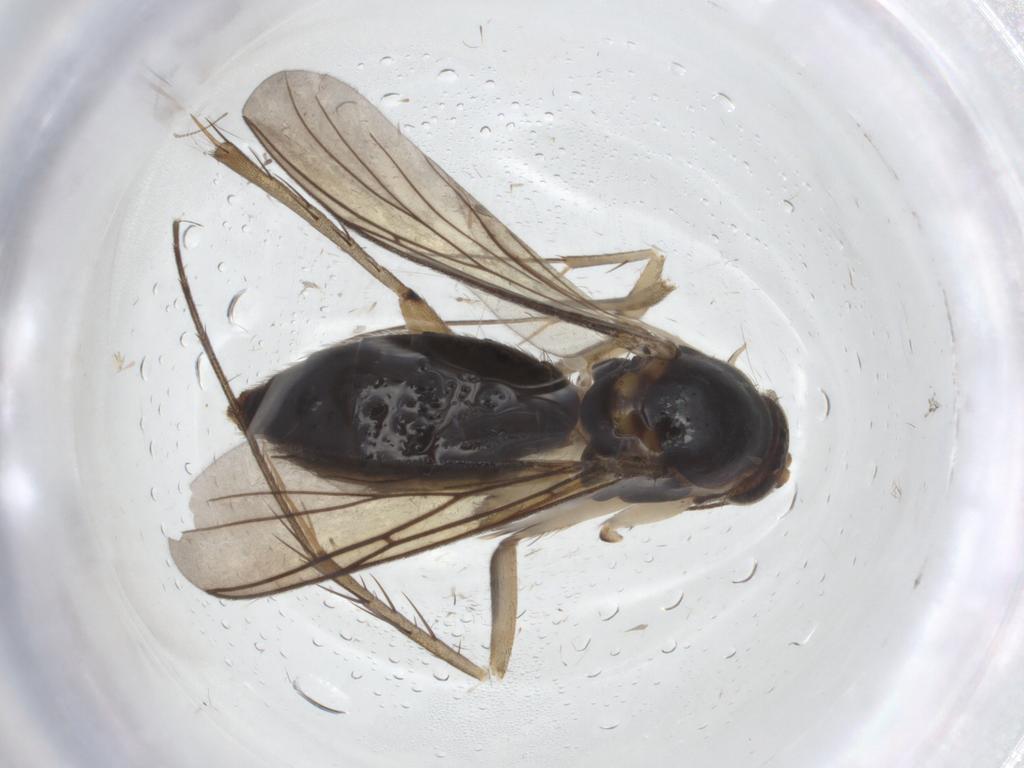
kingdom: Animalia
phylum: Arthropoda
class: Insecta
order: Diptera
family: Mycetophilidae
